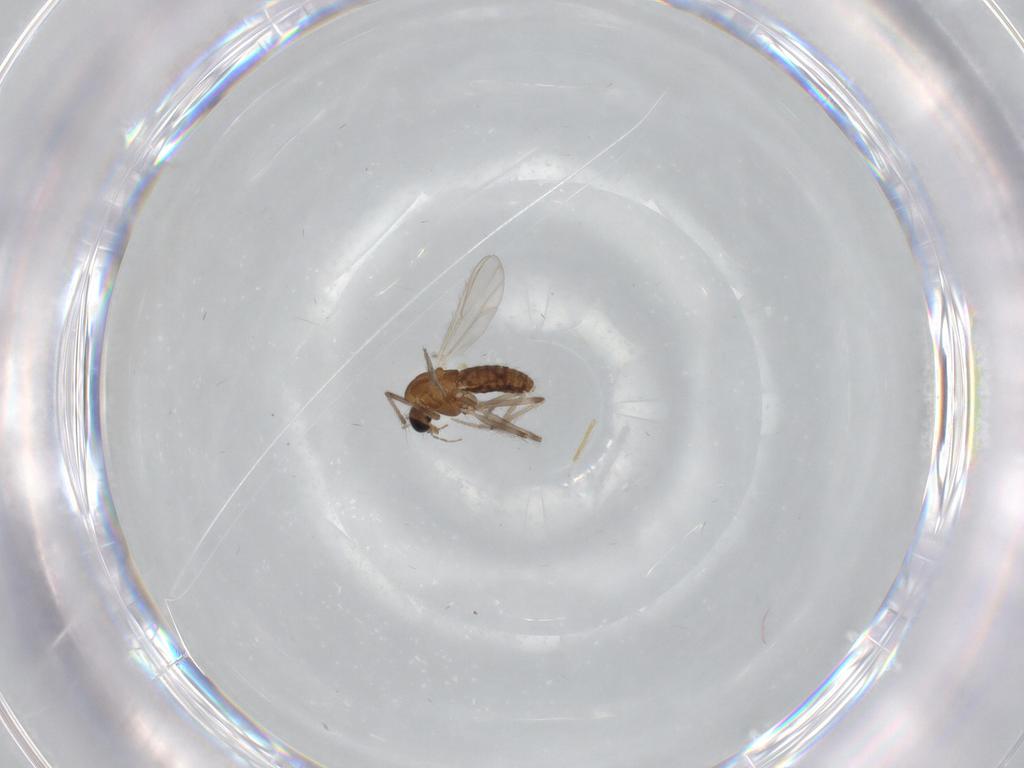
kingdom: Animalia
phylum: Arthropoda
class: Insecta
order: Diptera
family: Chironomidae
